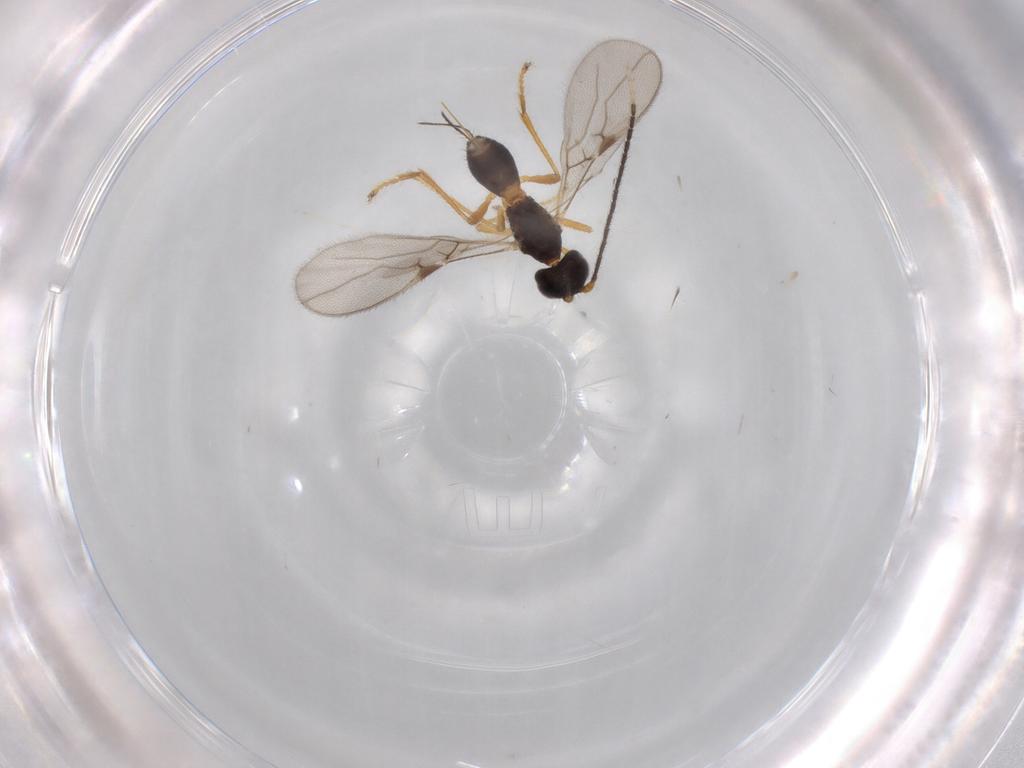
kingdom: Animalia
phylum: Arthropoda
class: Insecta
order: Hymenoptera
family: Braconidae
